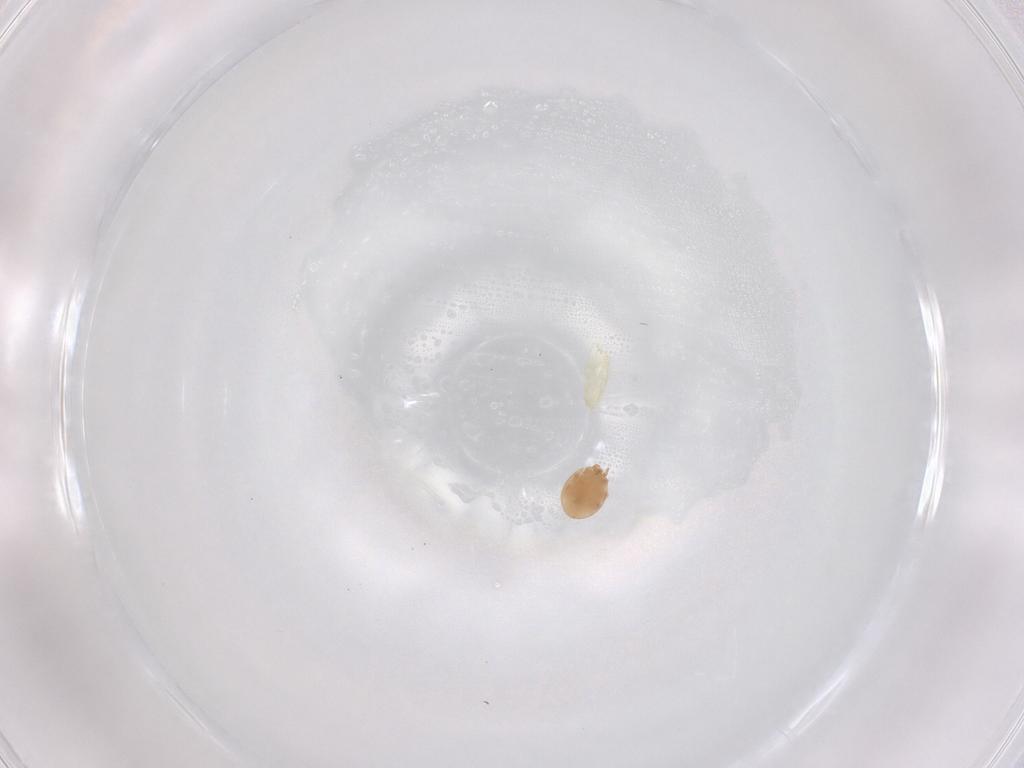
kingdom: Animalia
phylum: Arthropoda
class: Arachnida
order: Mesostigmata
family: Trematuridae
